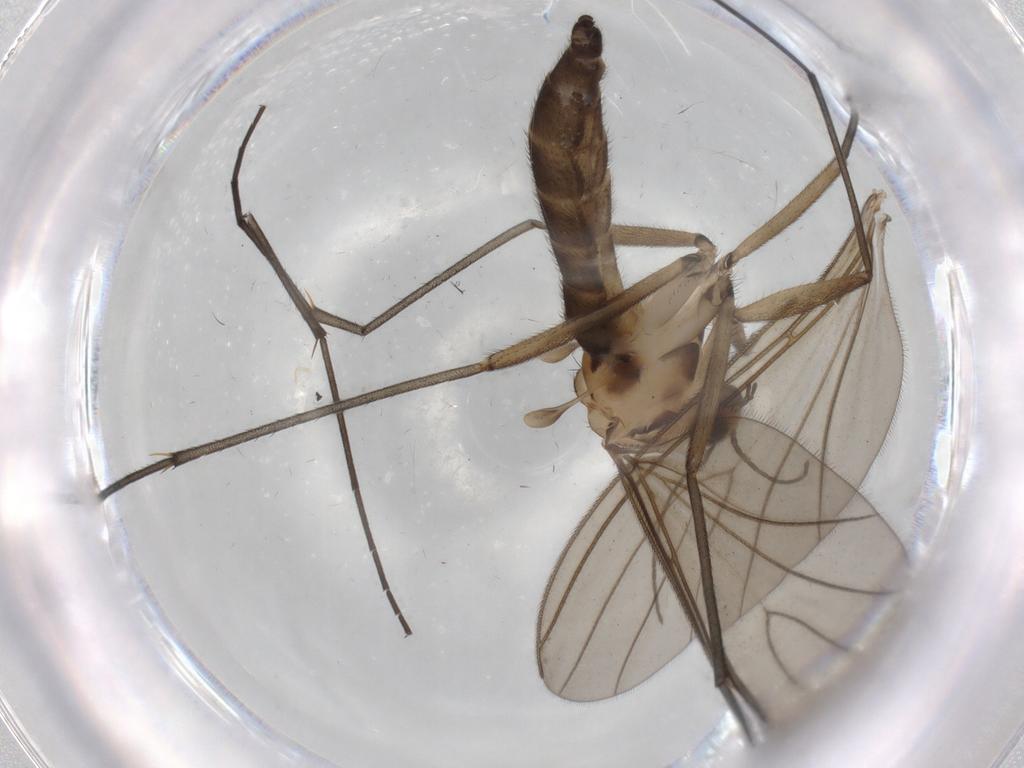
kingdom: Animalia
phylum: Arthropoda
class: Insecta
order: Diptera
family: Sciaridae
